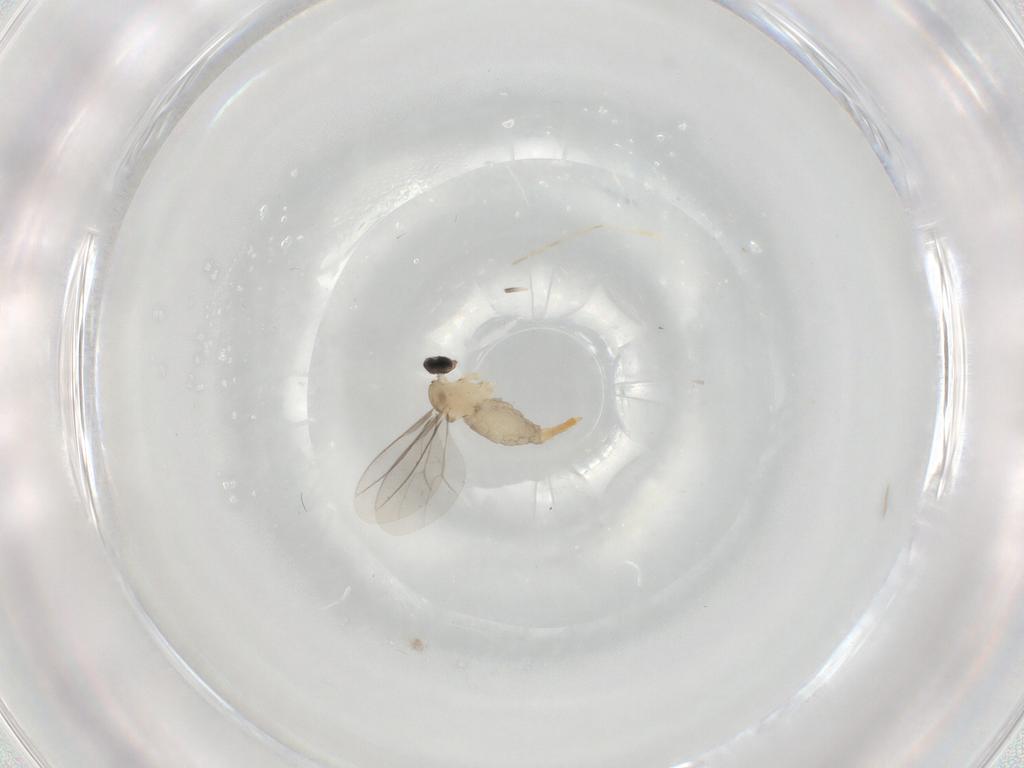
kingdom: Animalia
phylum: Arthropoda
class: Insecta
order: Diptera
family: Cecidomyiidae
